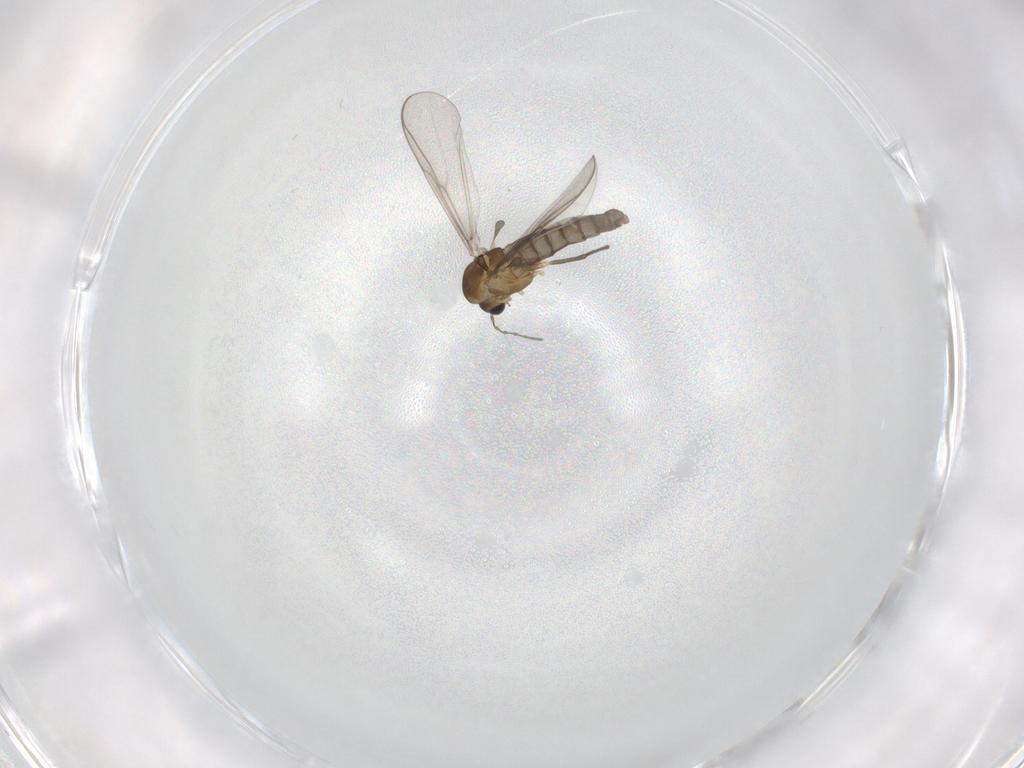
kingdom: Animalia
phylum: Arthropoda
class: Insecta
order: Diptera
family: Chironomidae
